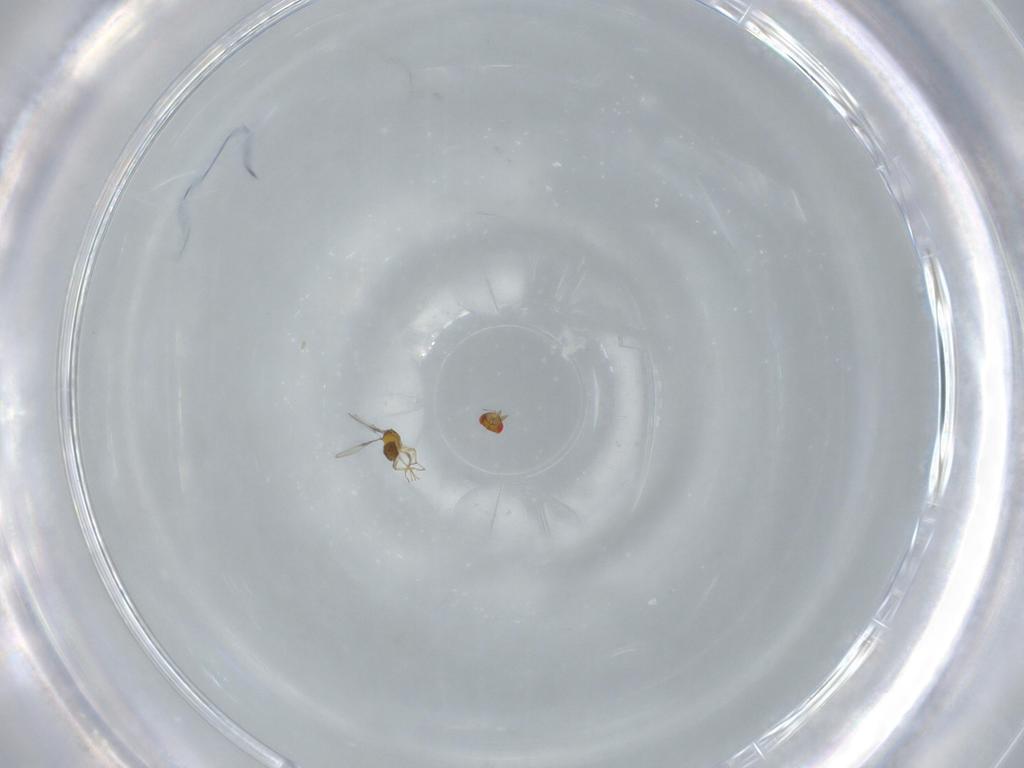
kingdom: Animalia
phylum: Arthropoda
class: Insecta
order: Hymenoptera
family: Trichogrammatidae
